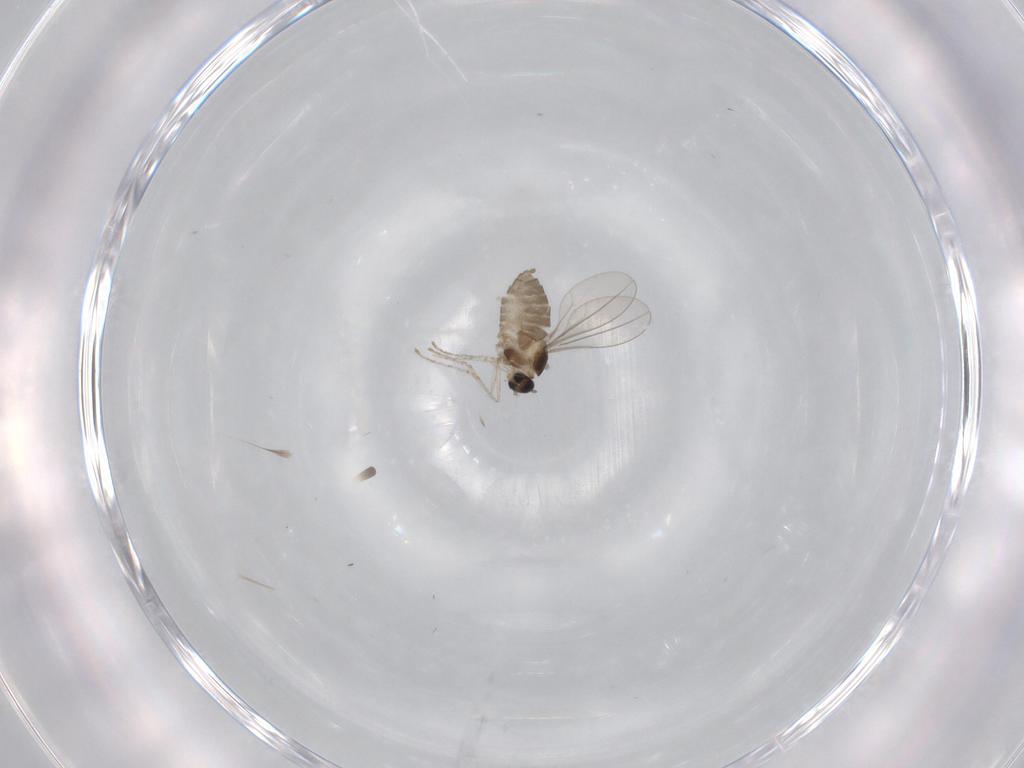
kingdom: Animalia
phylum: Arthropoda
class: Insecta
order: Diptera
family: Cecidomyiidae
